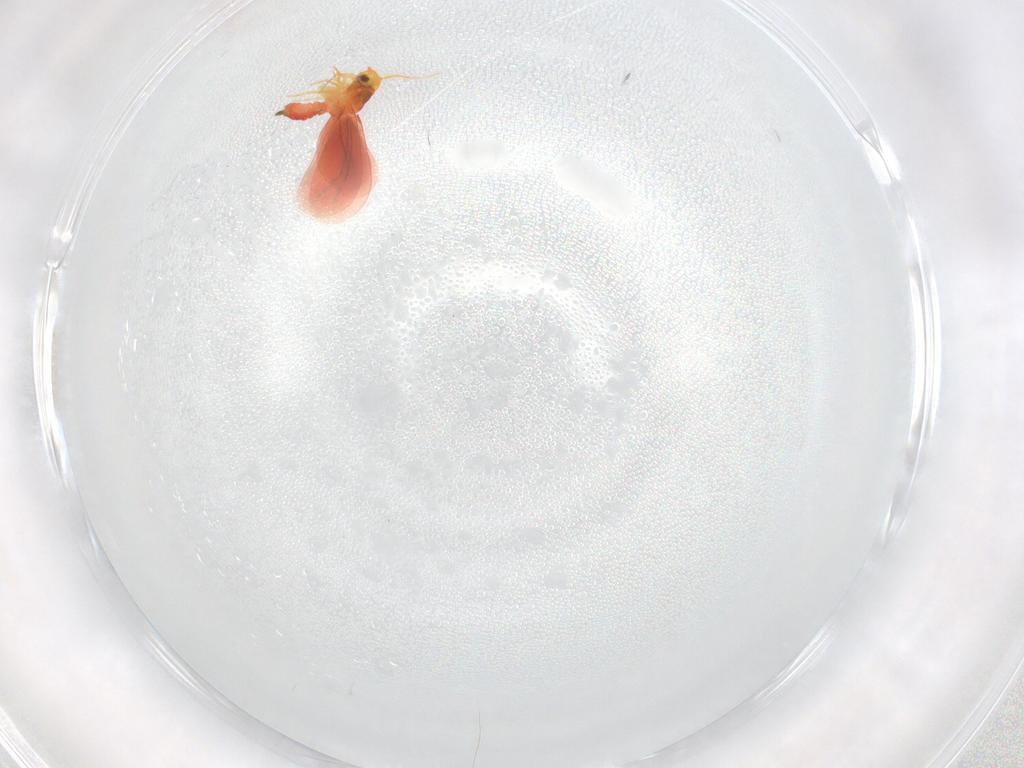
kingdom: Animalia
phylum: Arthropoda
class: Insecta
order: Hemiptera
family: Aleyrodidae
